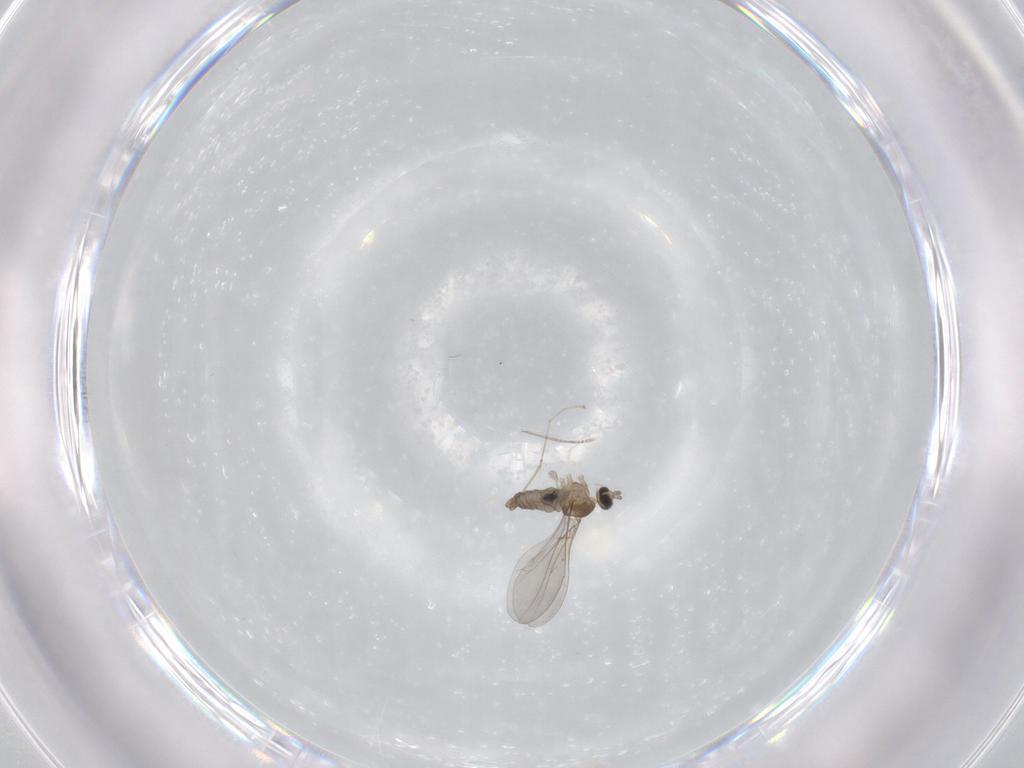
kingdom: Animalia
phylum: Arthropoda
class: Insecta
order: Diptera
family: Cecidomyiidae
